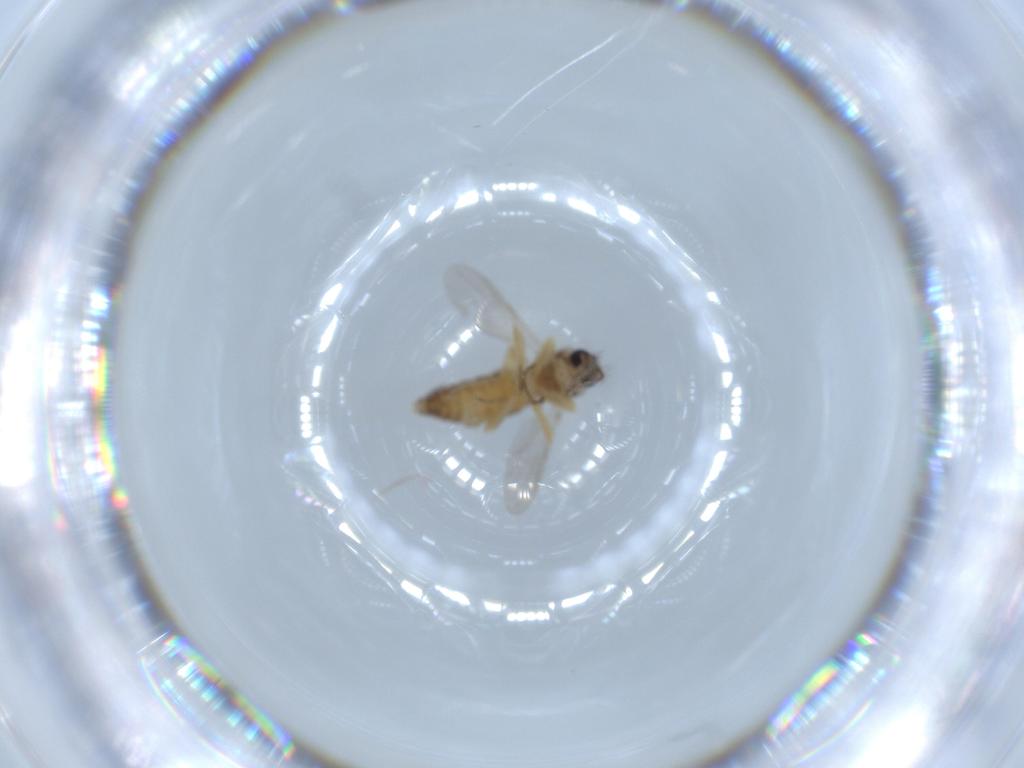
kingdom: Animalia
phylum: Arthropoda
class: Insecta
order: Diptera
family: Ceratopogonidae
